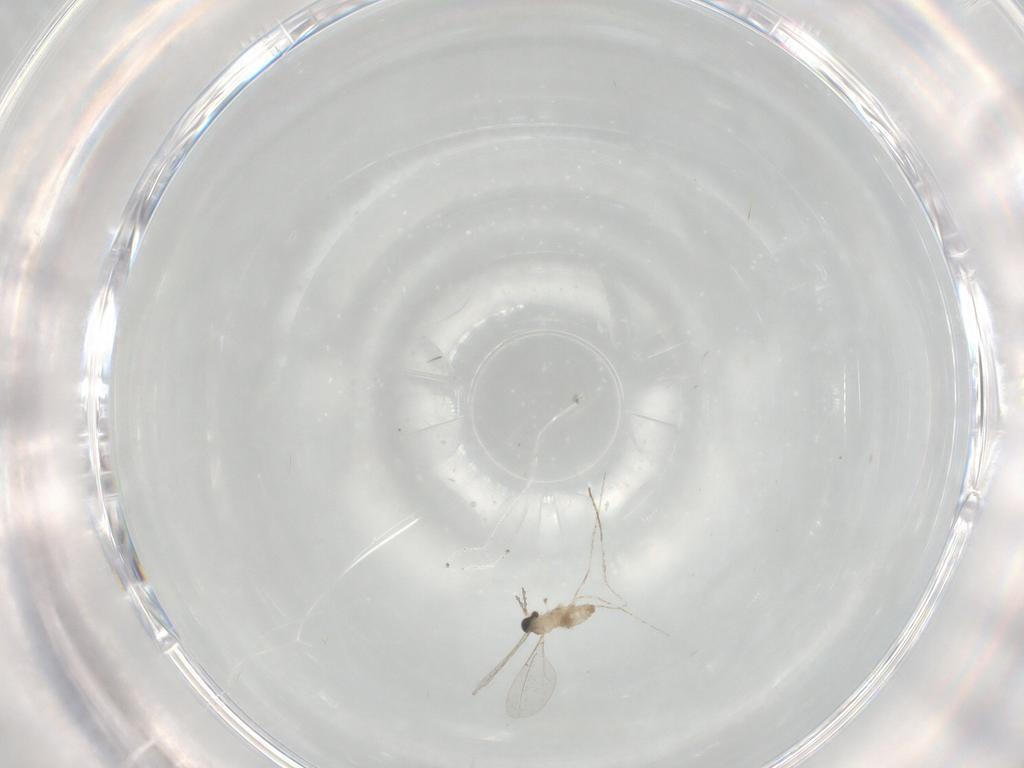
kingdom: Animalia
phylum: Arthropoda
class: Insecta
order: Diptera
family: Cecidomyiidae
